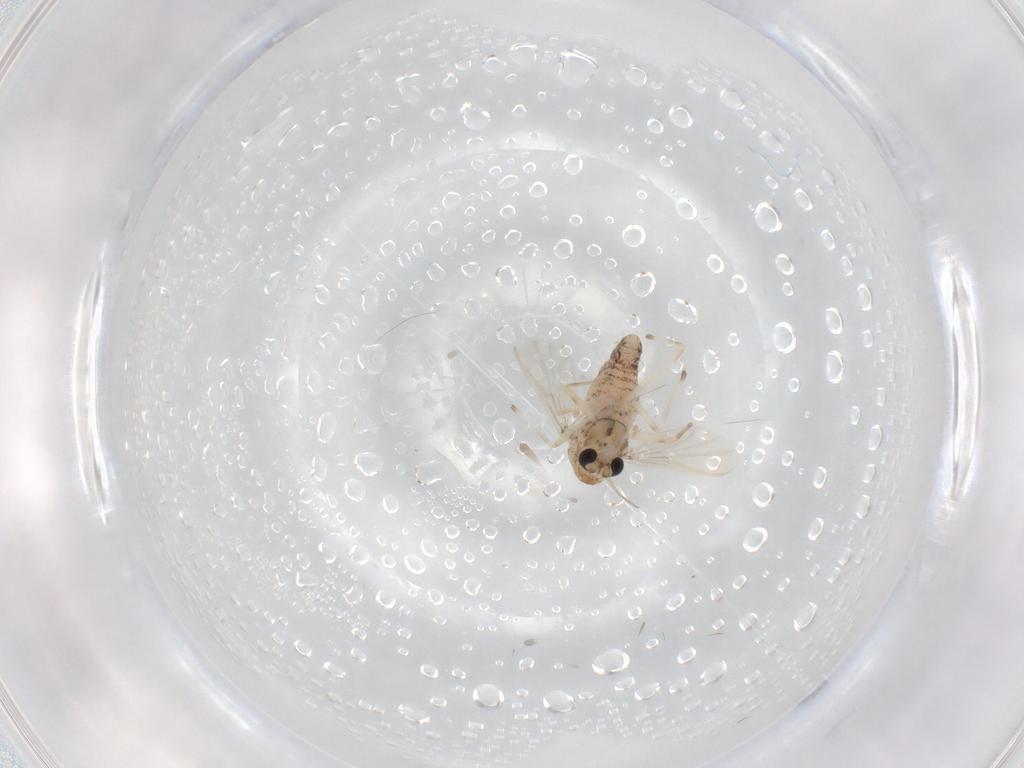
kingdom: Animalia
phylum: Arthropoda
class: Insecta
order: Diptera
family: Chironomidae
